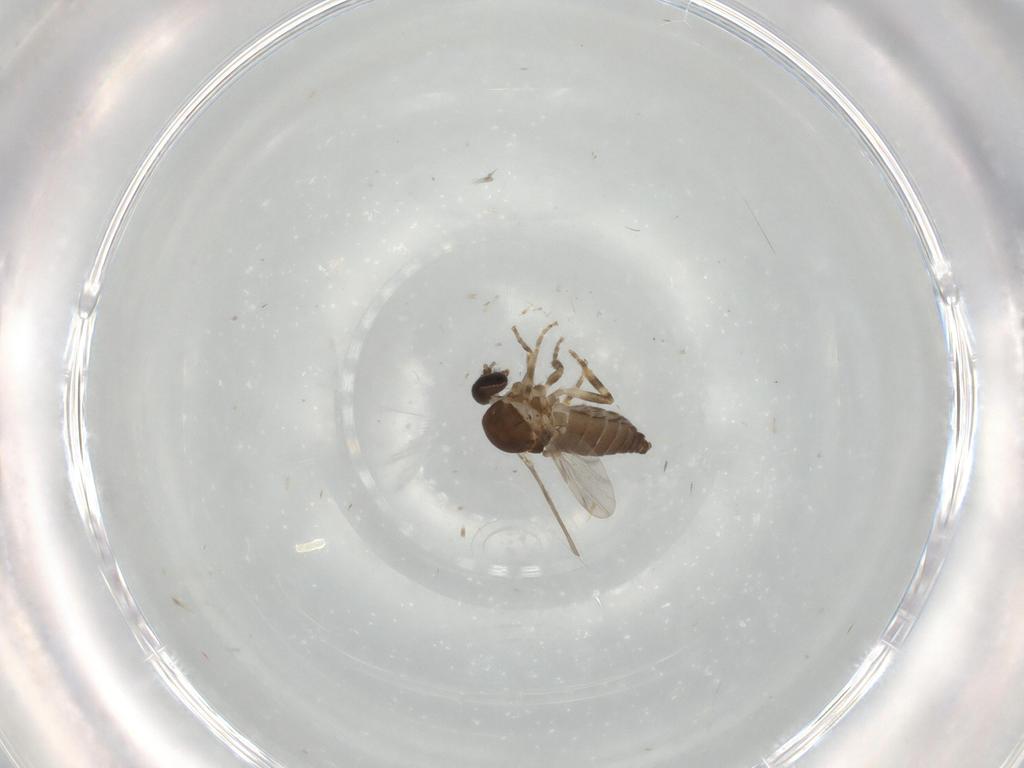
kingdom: Animalia
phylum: Arthropoda
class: Insecta
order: Diptera
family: Ceratopogonidae
